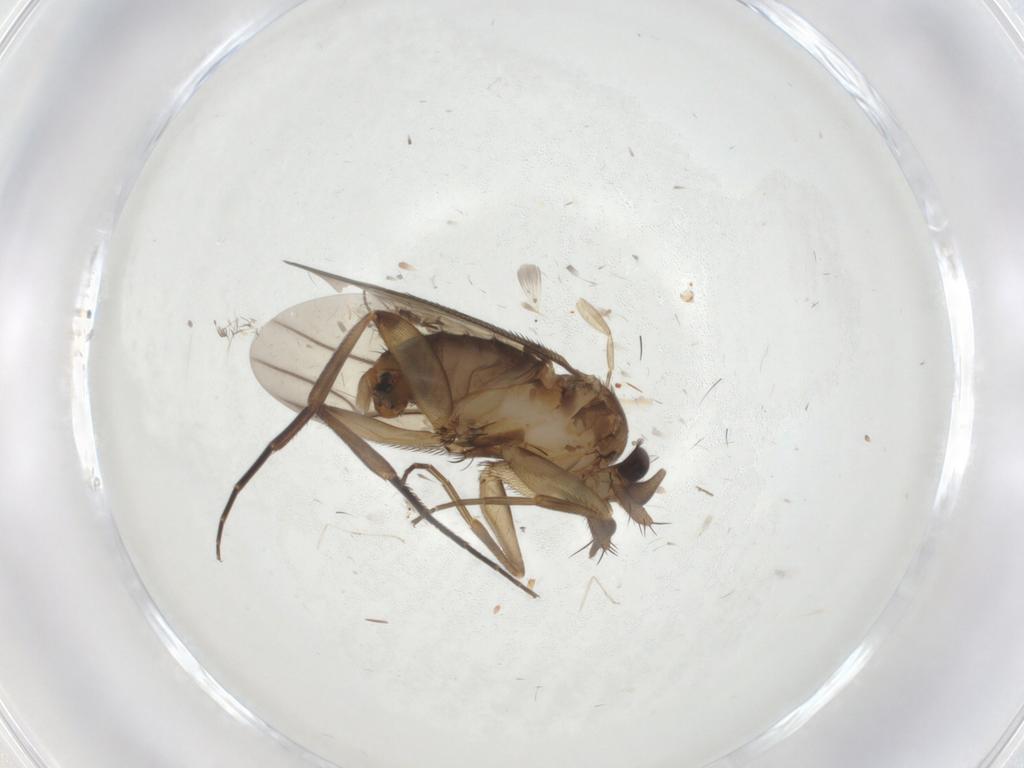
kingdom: Animalia
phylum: Arthropoda
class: Insecta
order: Diptera
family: Phoridae
